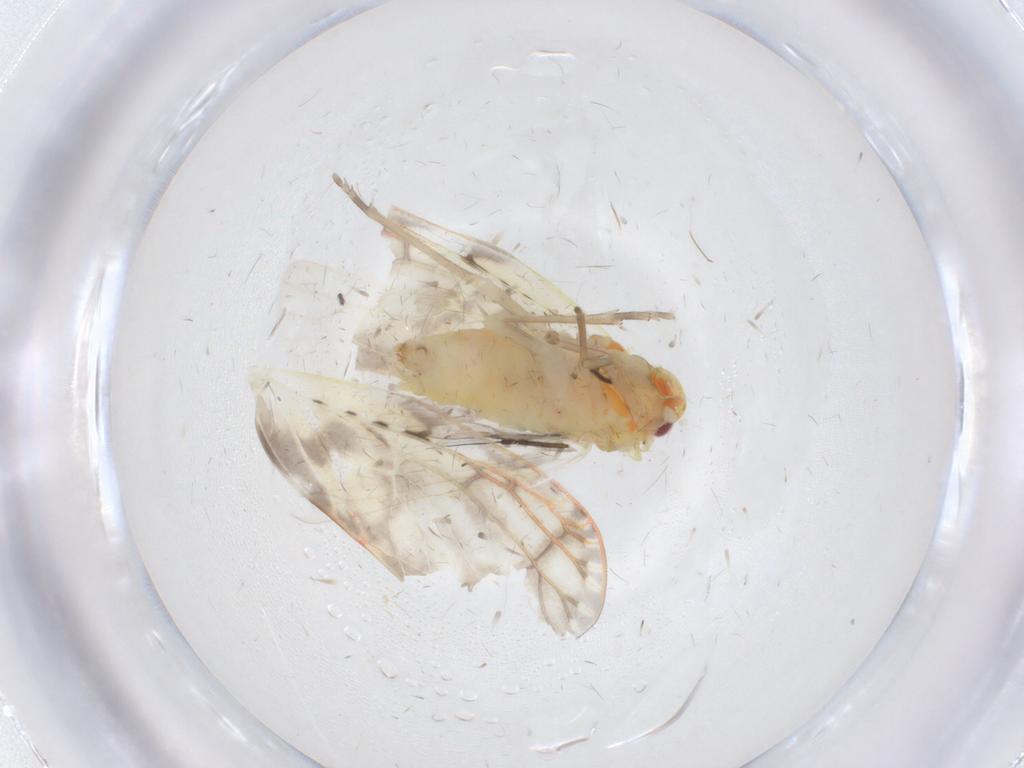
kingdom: Animalia
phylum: Arthropoda
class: Insecta
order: Hemiptera
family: Derbidae
